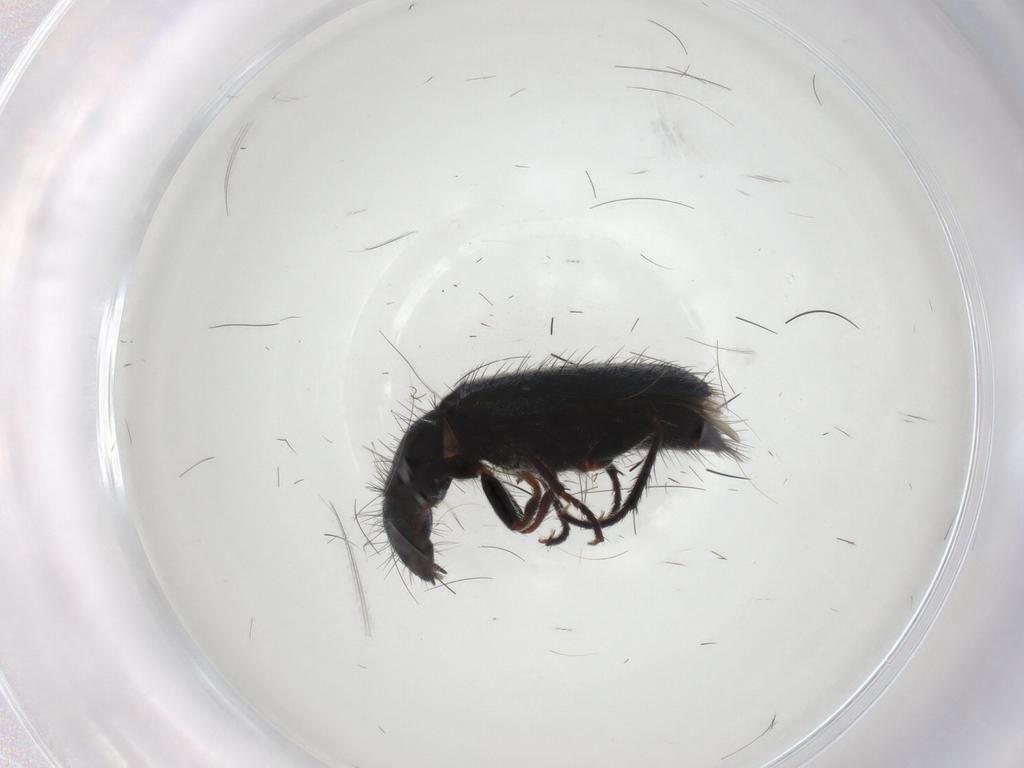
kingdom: Animalia
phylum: Arthropoda
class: Insecta
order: Coleoptera
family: Melyridae
